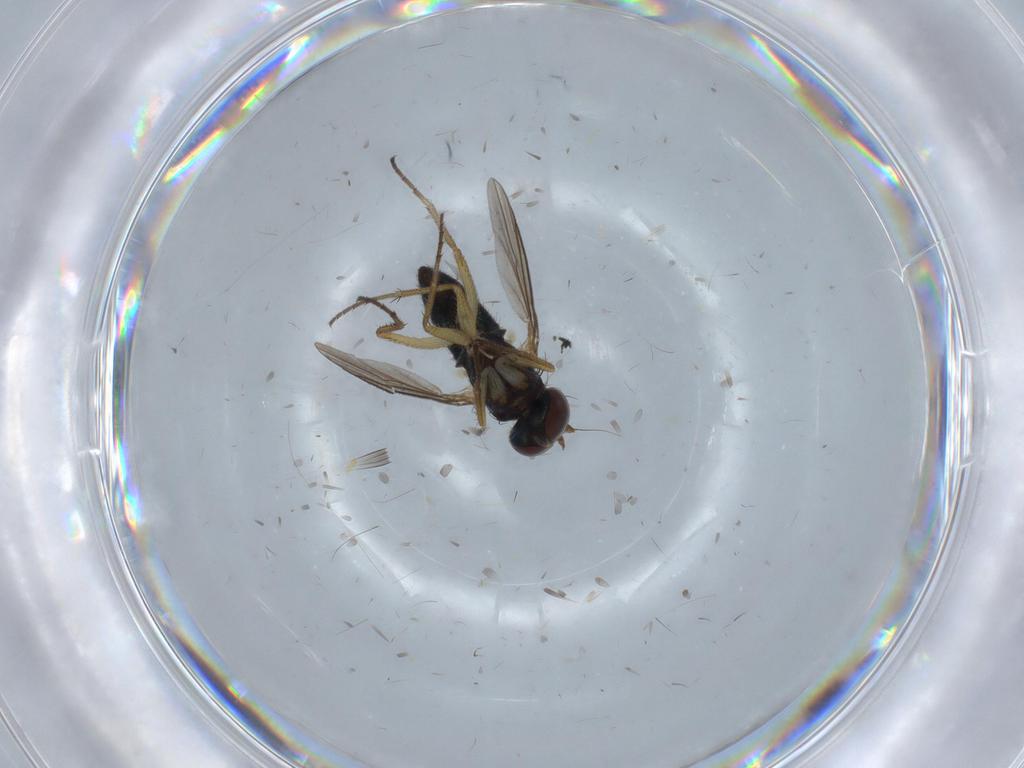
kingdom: Animalia
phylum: Arthropoda
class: Insecta
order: Diptera
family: Cecidomyiidae
